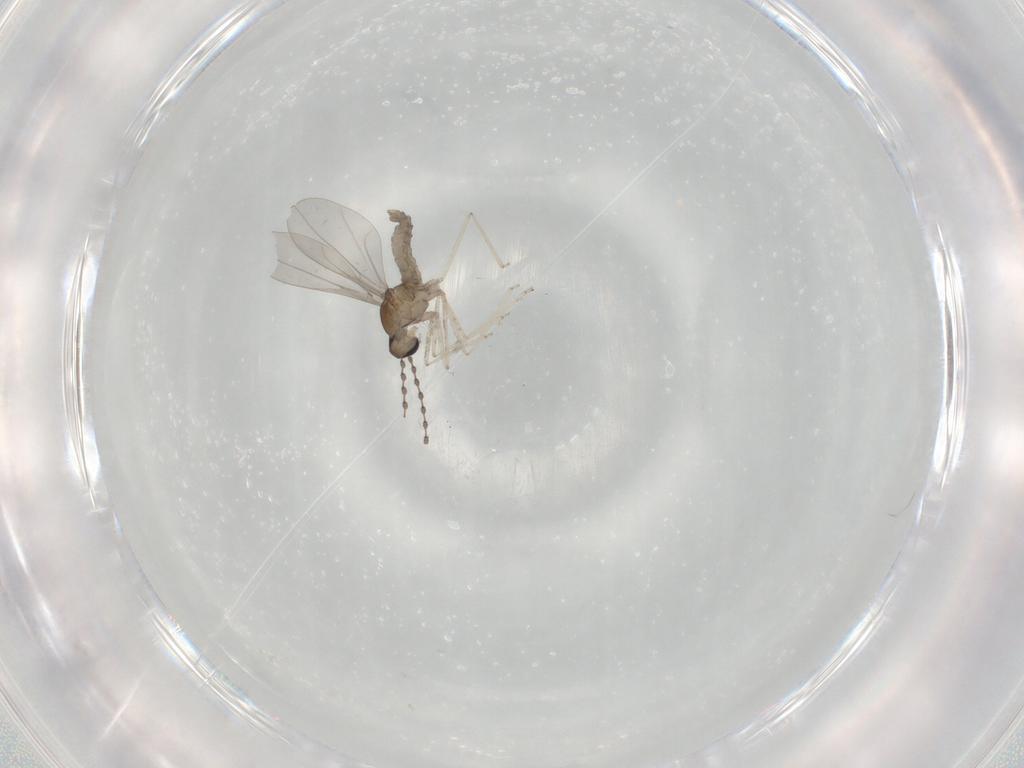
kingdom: Animalia
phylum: Arthropoda
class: Insecta
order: Diptera
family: Chironomidae
